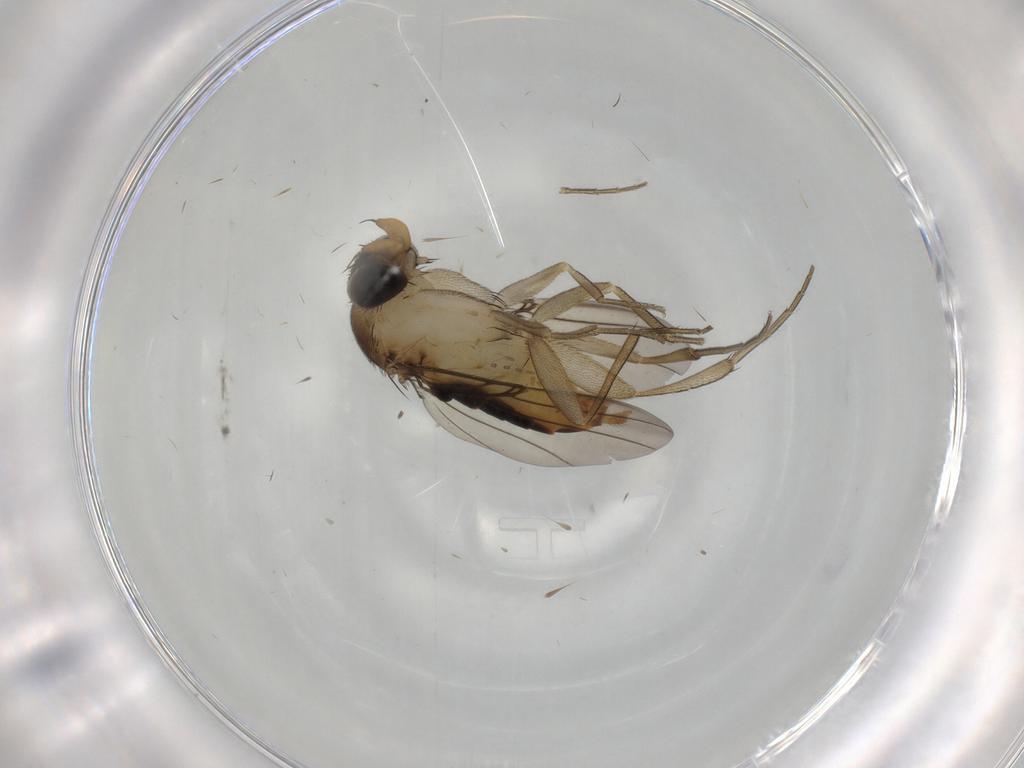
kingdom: Animalia
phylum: Arthropoda
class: Insecta
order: Diptera
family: Phoridae
